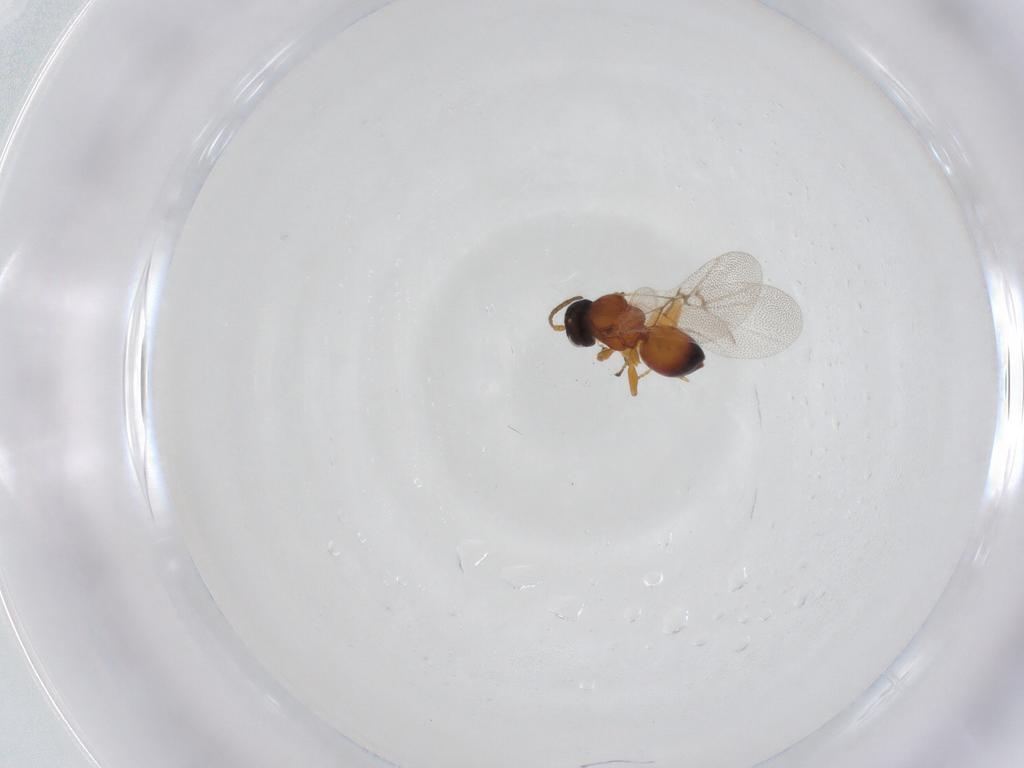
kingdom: Animalia
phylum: Arthropoda
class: Insecta
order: Hymenoptera
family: Cynipidae
